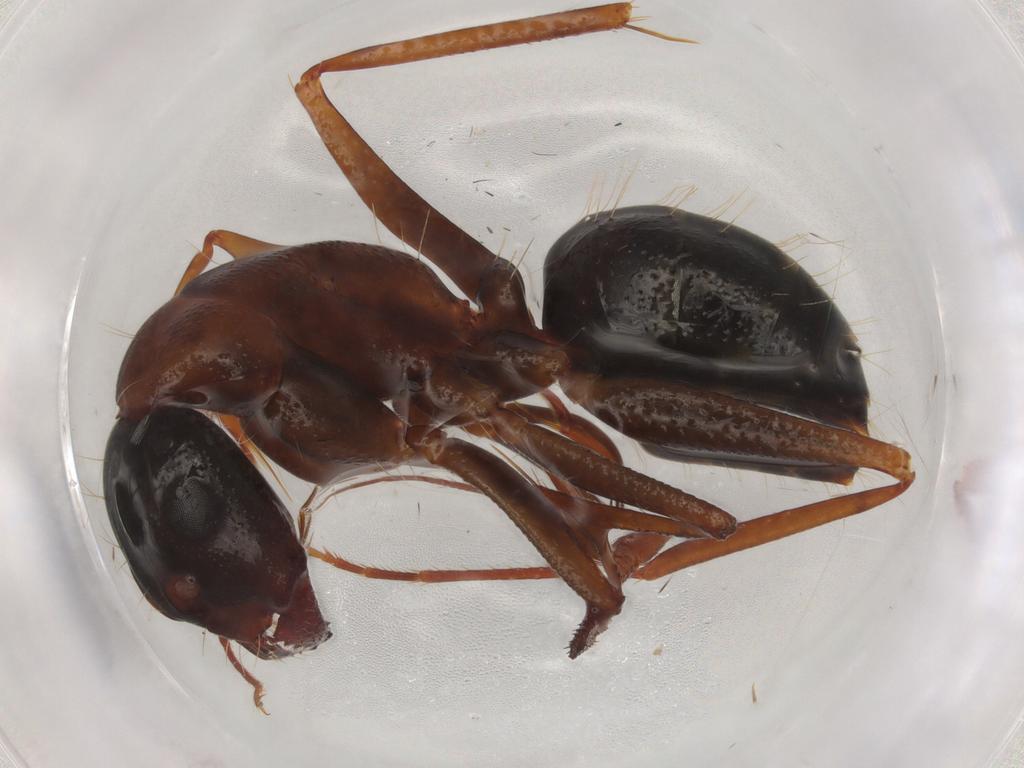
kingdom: Animalia
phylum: Arthropoda
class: Insecta
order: Hymenoptera
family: Formicidae
